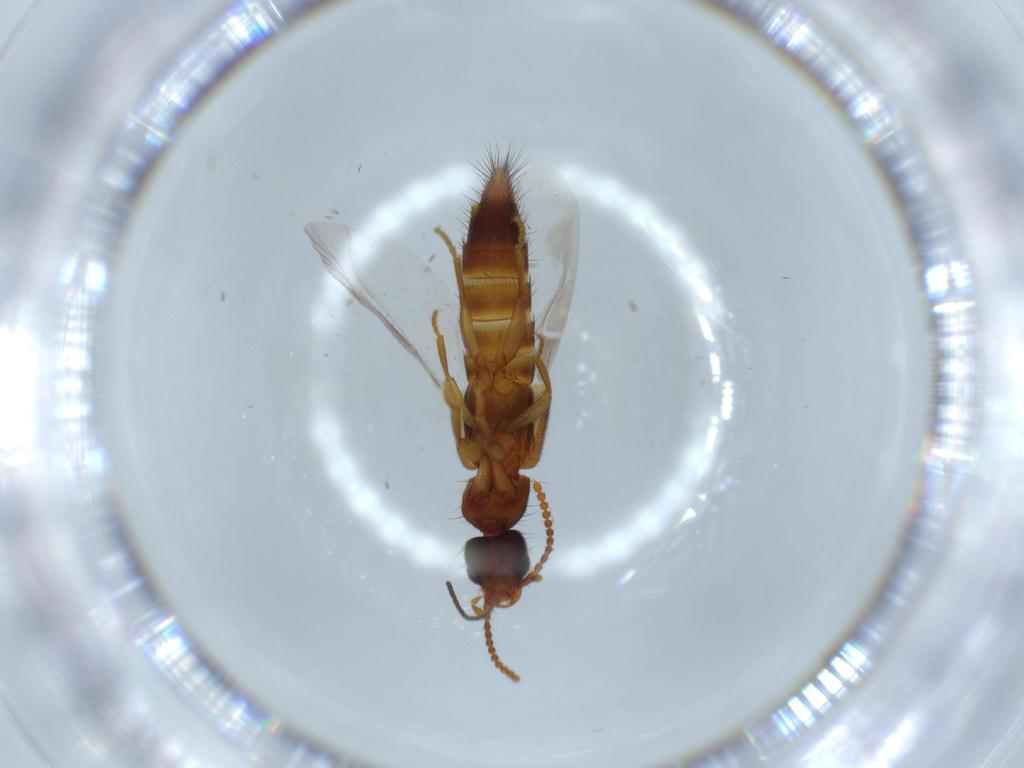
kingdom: Animalia
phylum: Arthropoda
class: Insecta
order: Coleoptera
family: Staphylinidae
